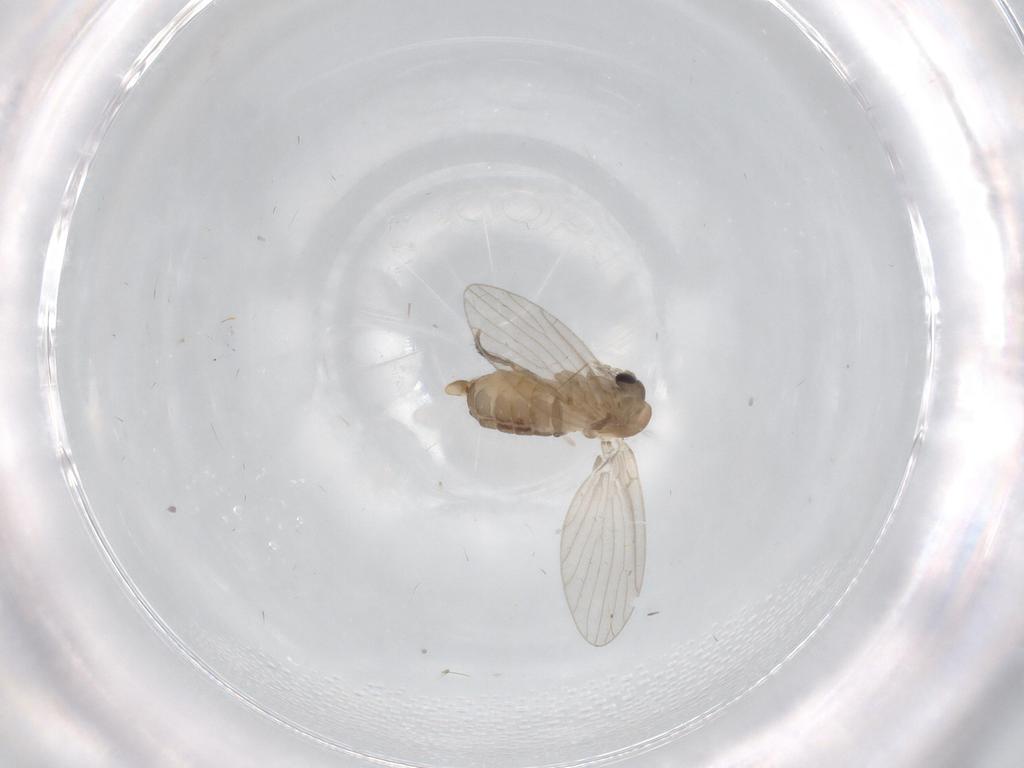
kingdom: Animalia
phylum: Arthropoda
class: Insecta
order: Diptera
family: Psychodidae
